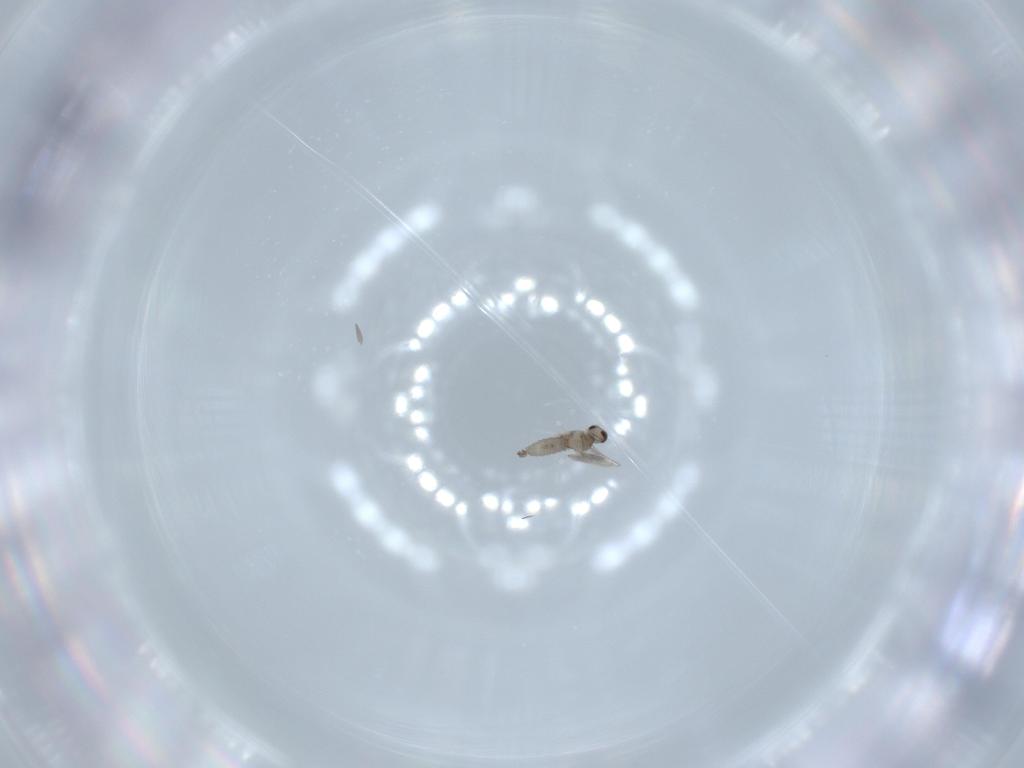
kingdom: Animalia
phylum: Arthropoda
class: Insecta
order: Diptera
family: Cecidomyiidae
